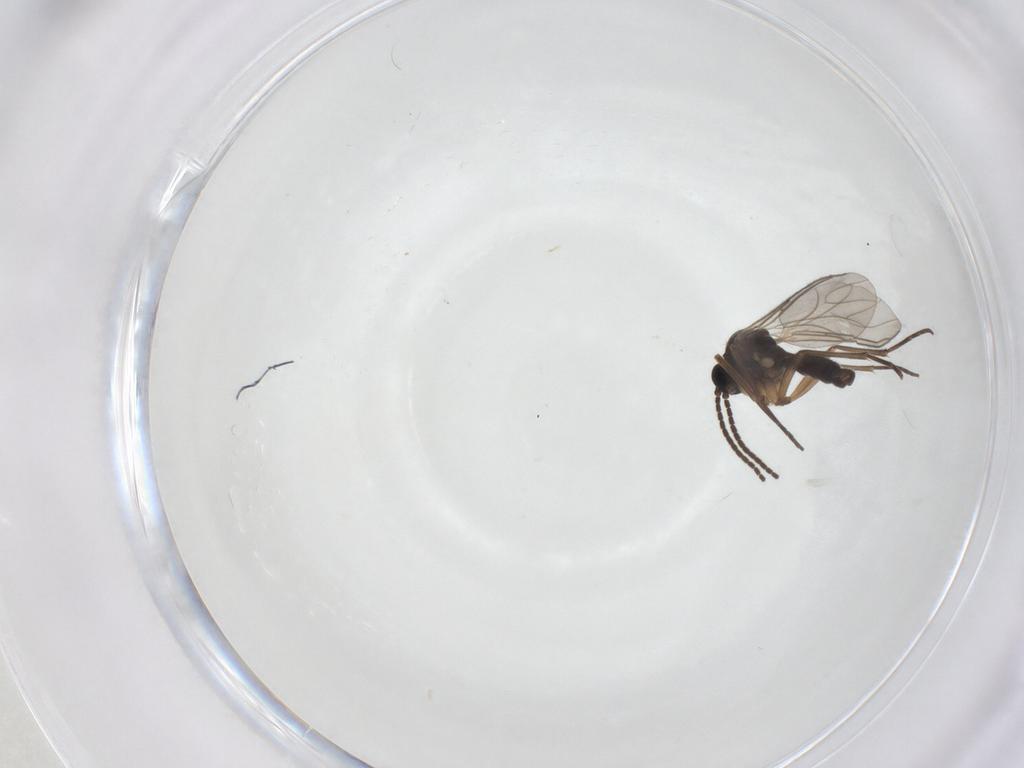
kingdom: Animalia
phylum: Arthropoda
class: Insecta
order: Diptera
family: Sciaridae
